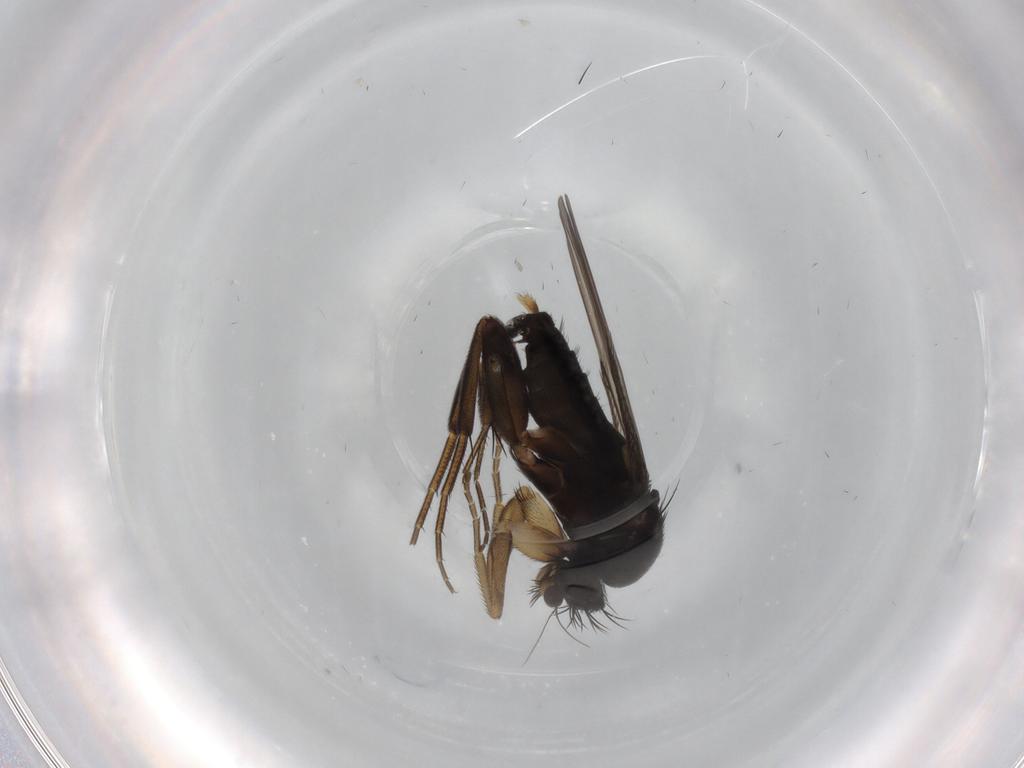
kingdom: Animalia
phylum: Arthropoda
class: Insecta
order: Diptera
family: Phoridae
